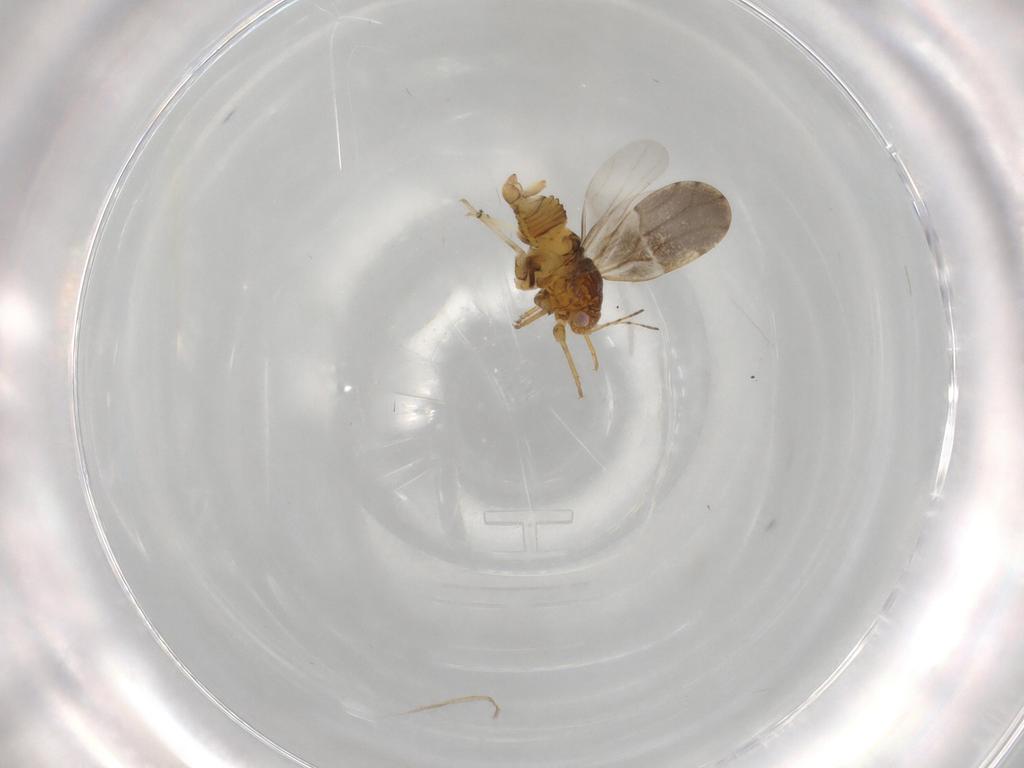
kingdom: Animalia
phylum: Arthropoda
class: Insecta
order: Hemiptera
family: Liviidae
